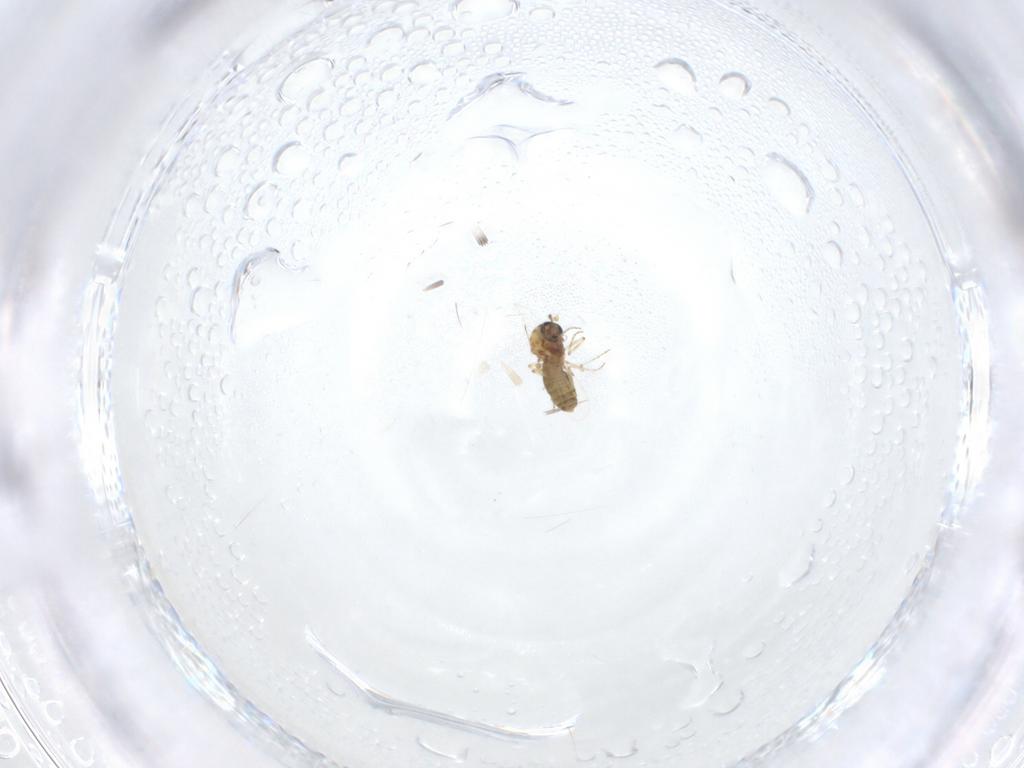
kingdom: Animalia
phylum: Arthropoda
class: Insecta
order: Diptera
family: Ceratopogonidae
